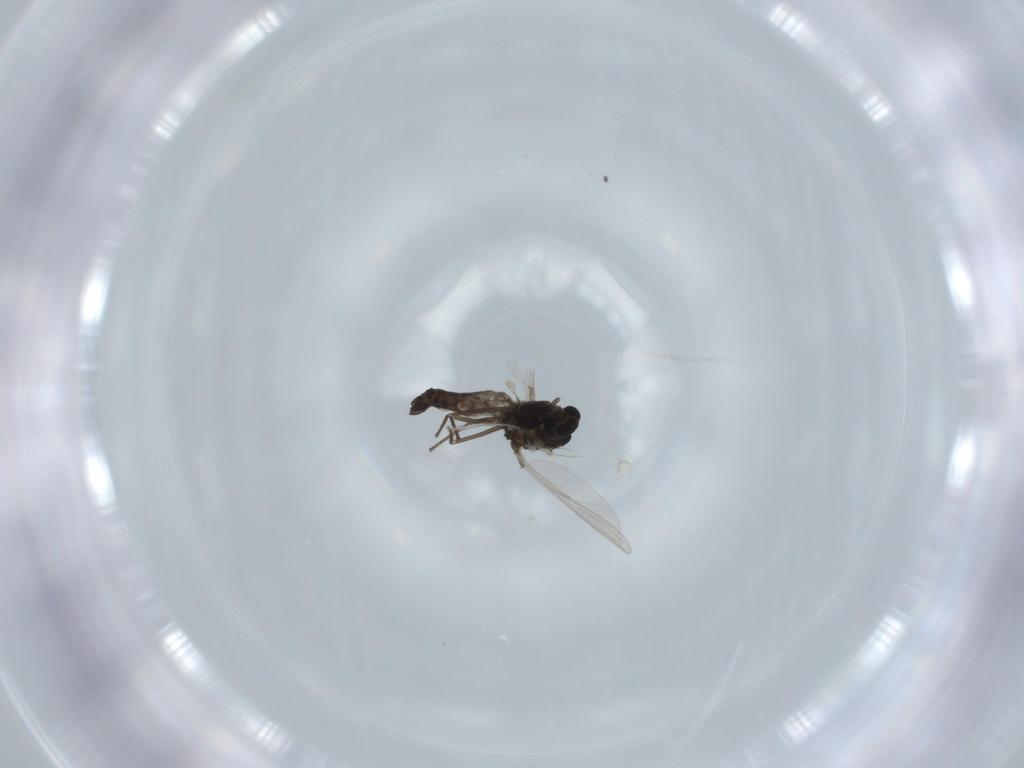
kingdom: Animalia
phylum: Arthropoda
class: Insecta
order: Diptera
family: Chironomidae
